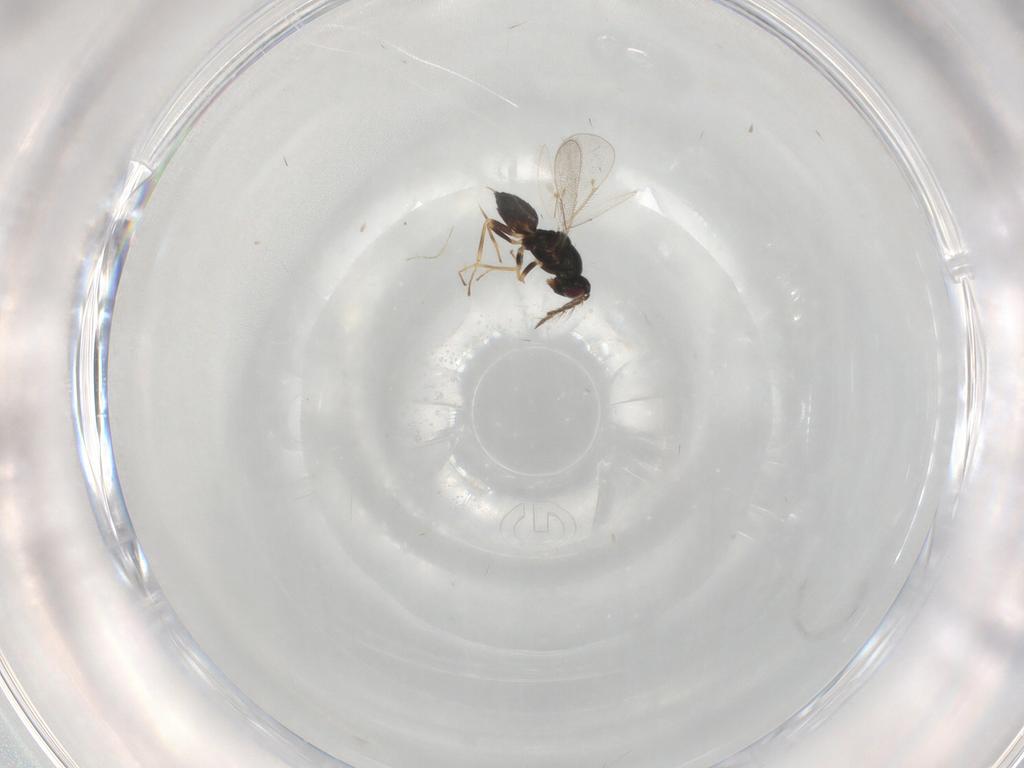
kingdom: Animalia
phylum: Arthropoda
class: Insecta
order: Hymenoptera
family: Eulophidae
